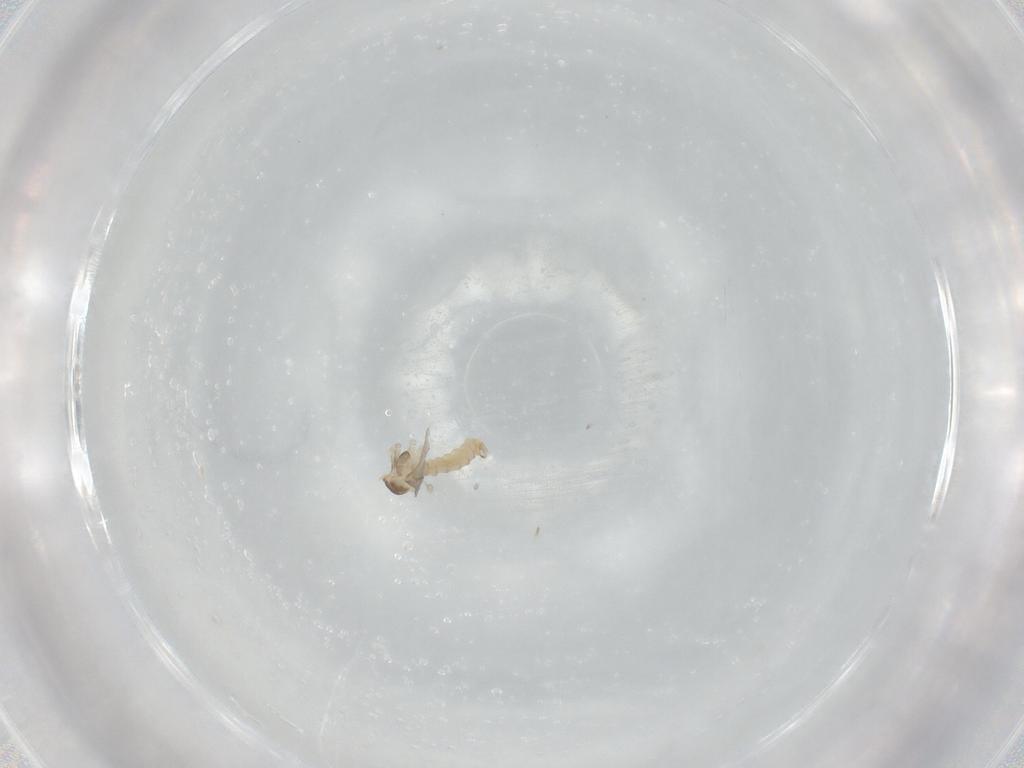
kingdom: Animalia
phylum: Arthropoda
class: Insecta
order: Diptera
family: Cecidomyiidae
